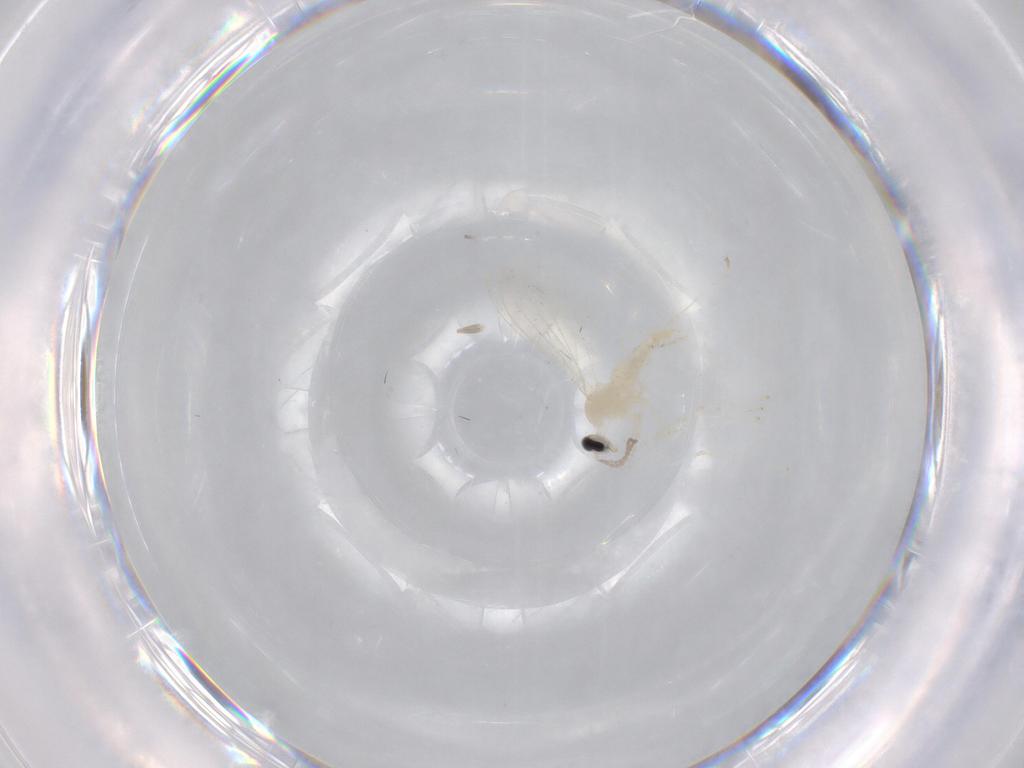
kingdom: Animalia
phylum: Arthropoda
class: Insecta
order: Diptera
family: Cecidomyiidae
